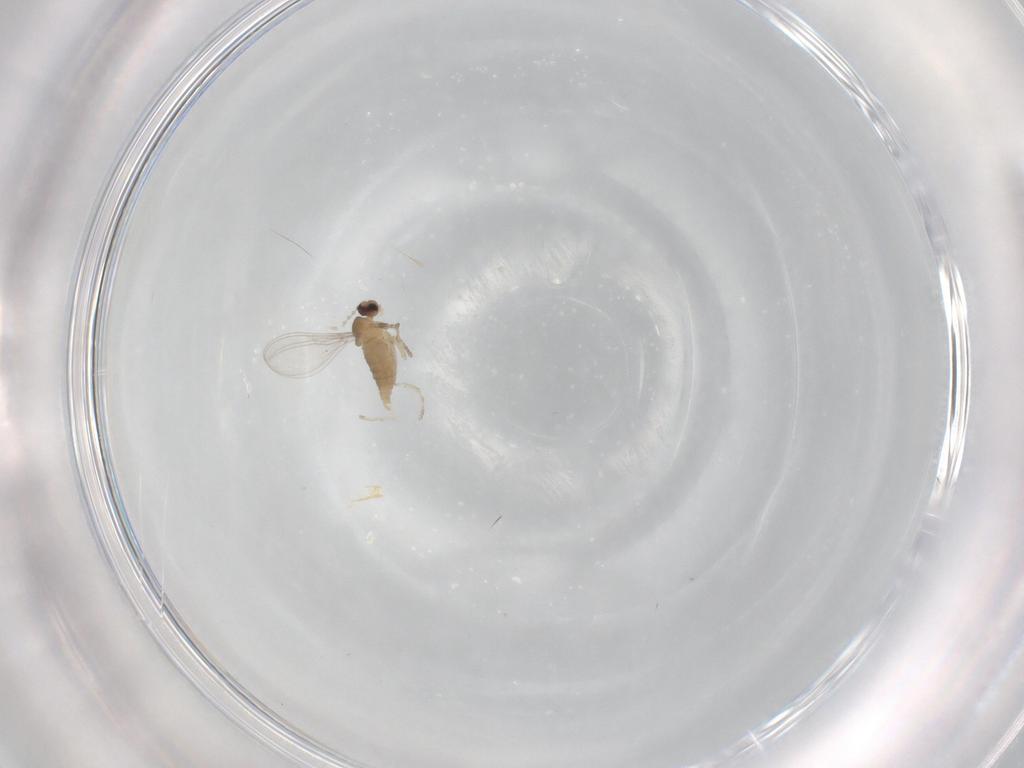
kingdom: Animalia
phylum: Arthropoda
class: Insecta
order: Diptera
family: Cecidomyiidae
